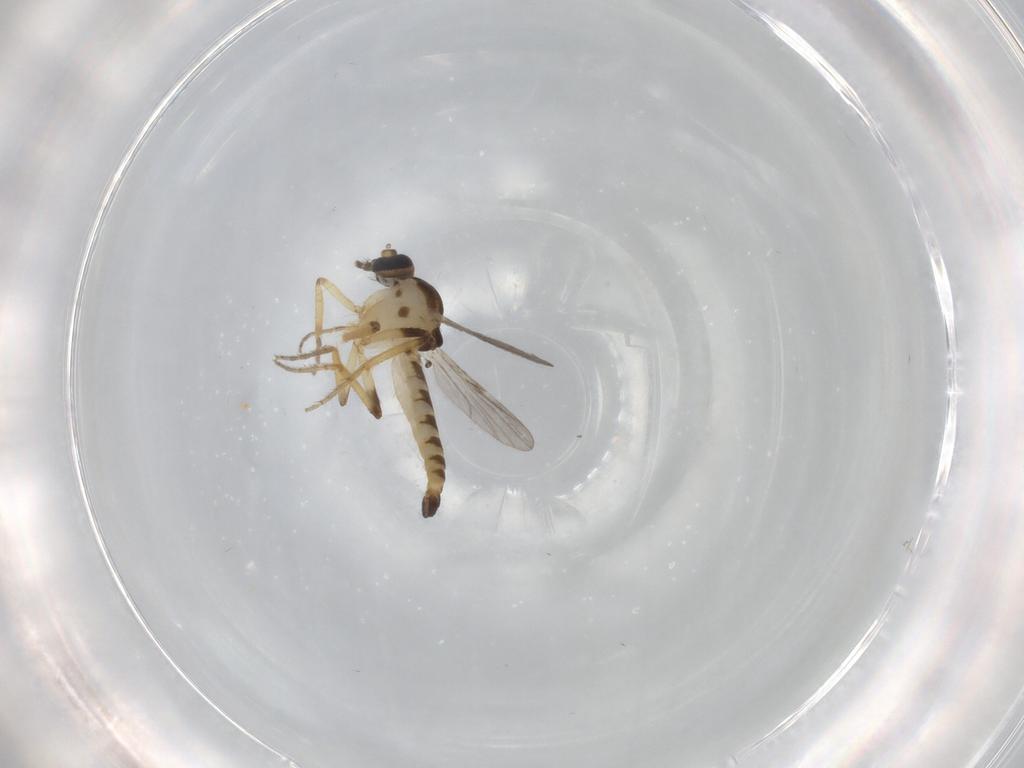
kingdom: Animalia
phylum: Arthropoda
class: Insecta
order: Diptera
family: Ceratopogonidae
